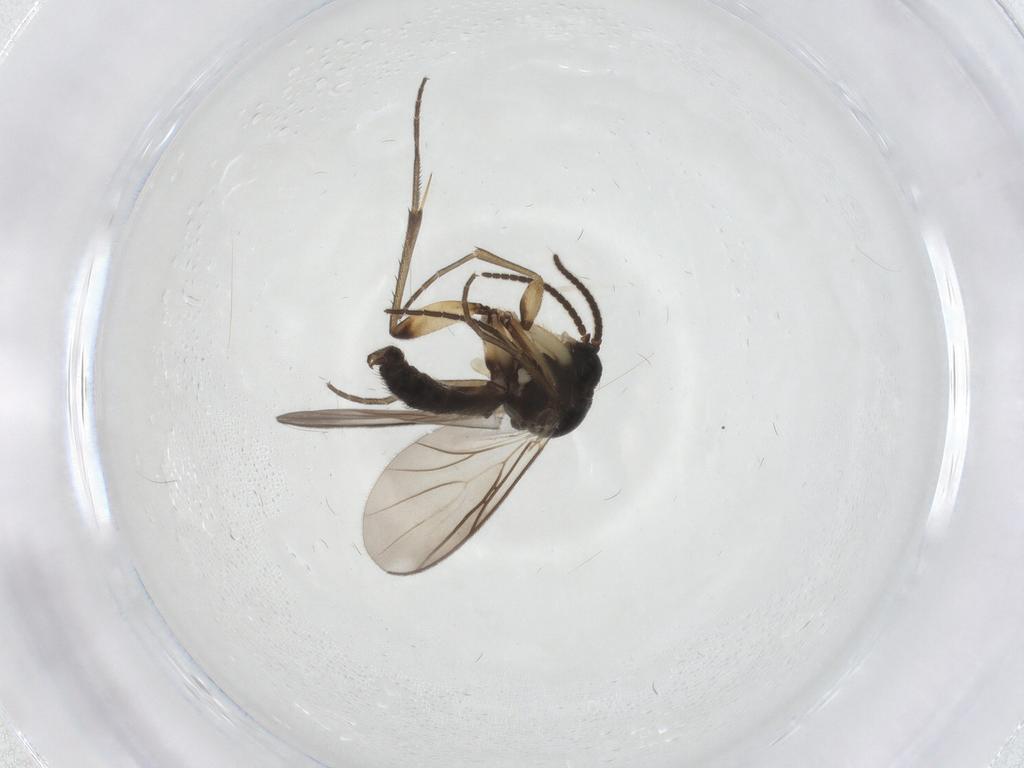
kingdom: Animalia
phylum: Arthropoda
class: Insecta
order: Diptera
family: Mycetophilidae
